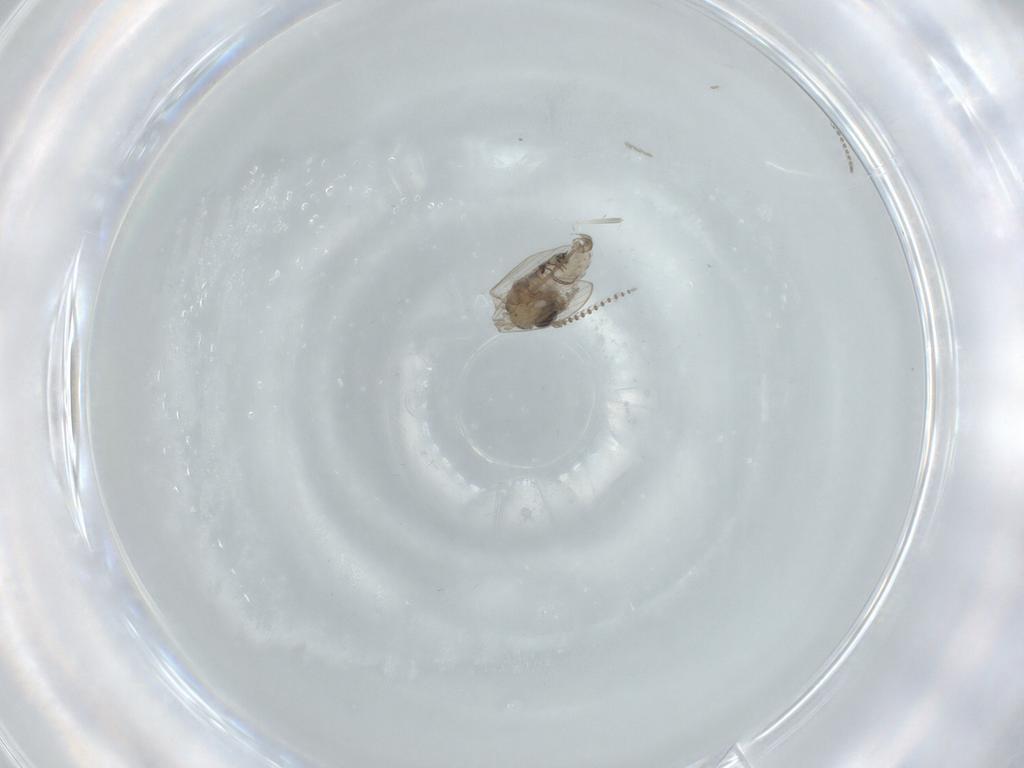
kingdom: Animalia
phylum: Arthropoda
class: Insecta
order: Diptera
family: Psychodidae
